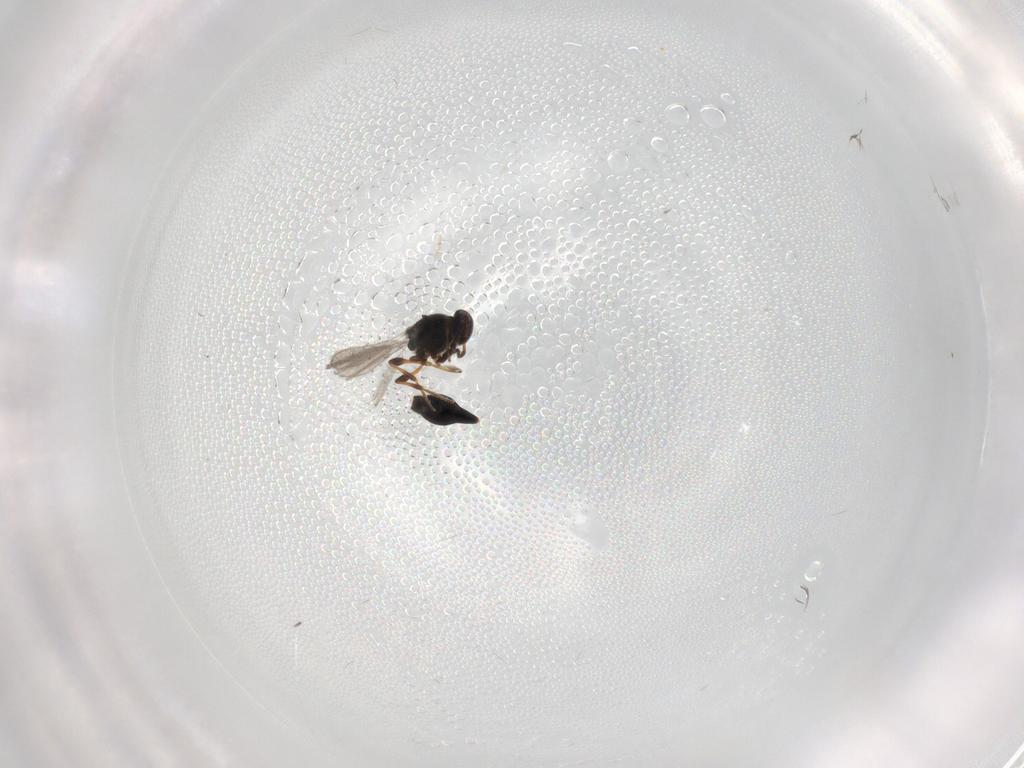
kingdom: Animalia
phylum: Arthropoda
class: Insecta
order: Hymenoptera
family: Platygastridae
